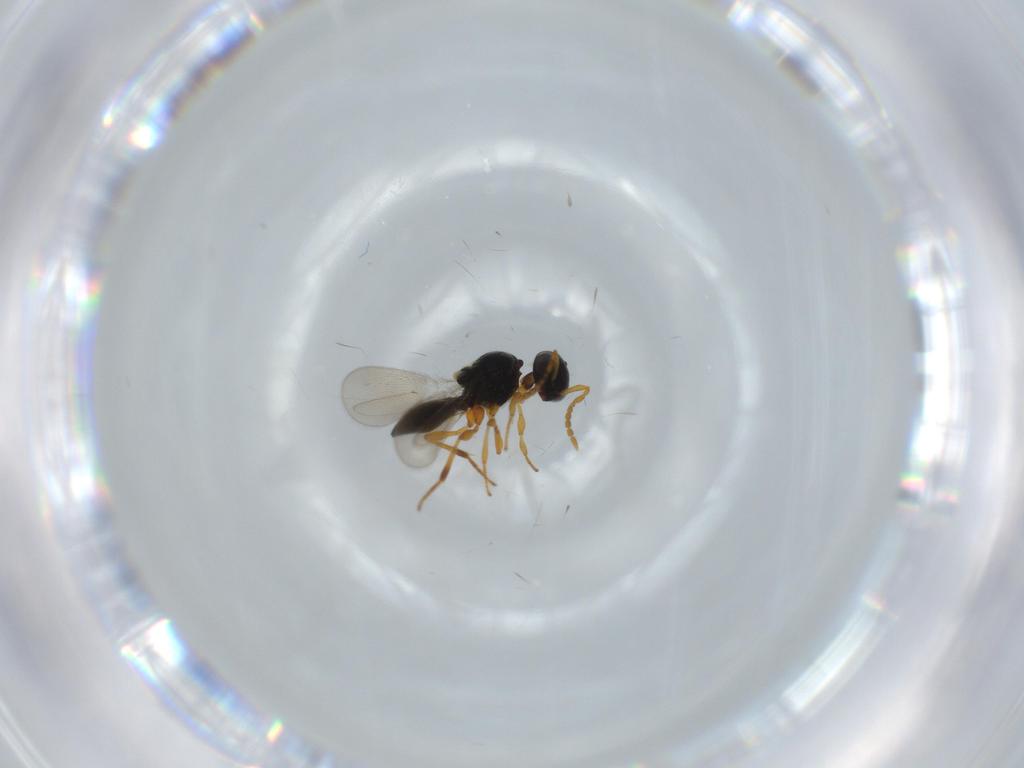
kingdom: Animalia
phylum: Arthropoda
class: Insecta
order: Hymenoptera
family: Platygastridae
